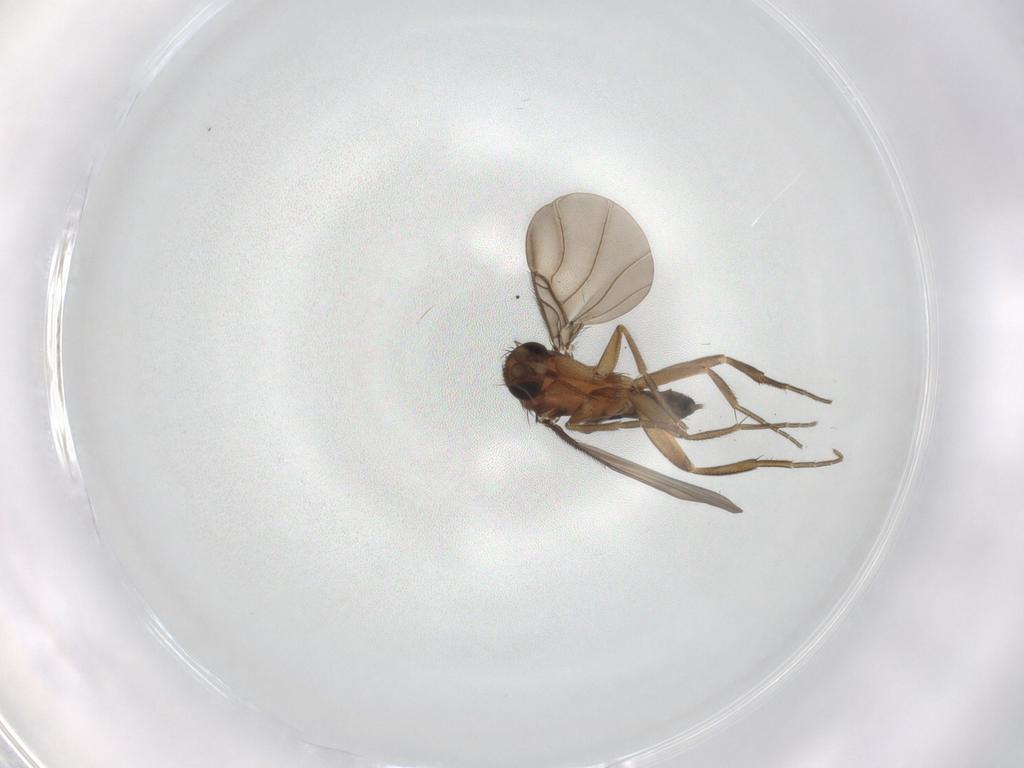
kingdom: Animalia
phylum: Arthropoda
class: Insecta
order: Diptera
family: Phoridae
